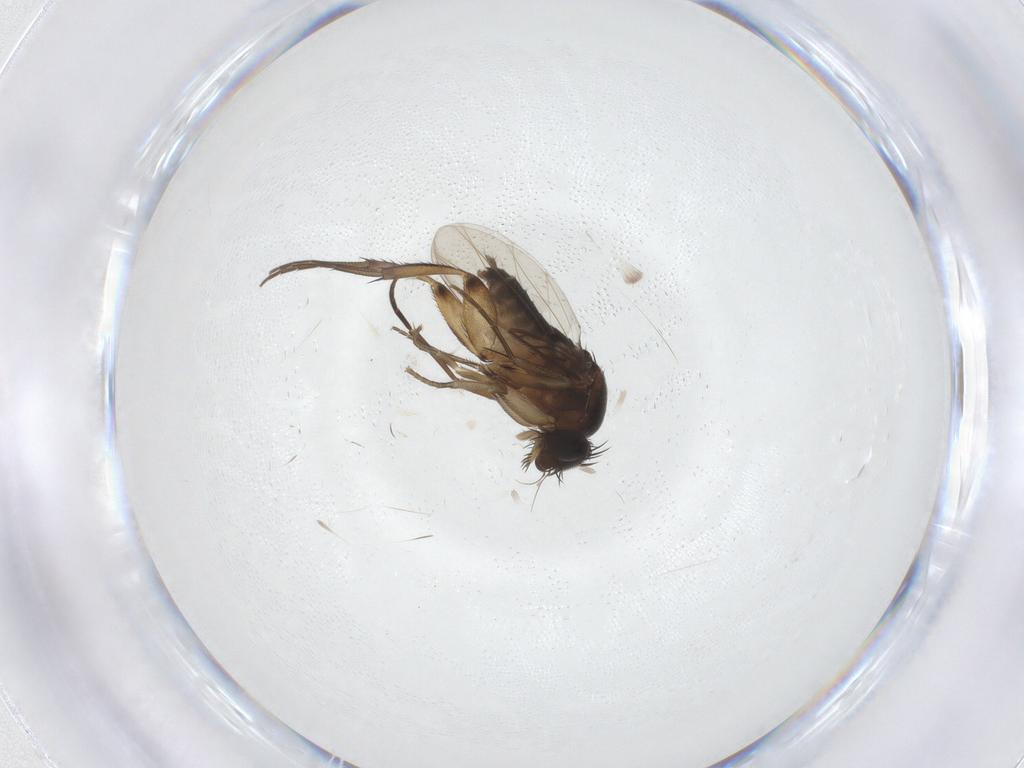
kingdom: Animalia
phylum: Arthropoda
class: Insecta
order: Diptera
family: Phoridae
